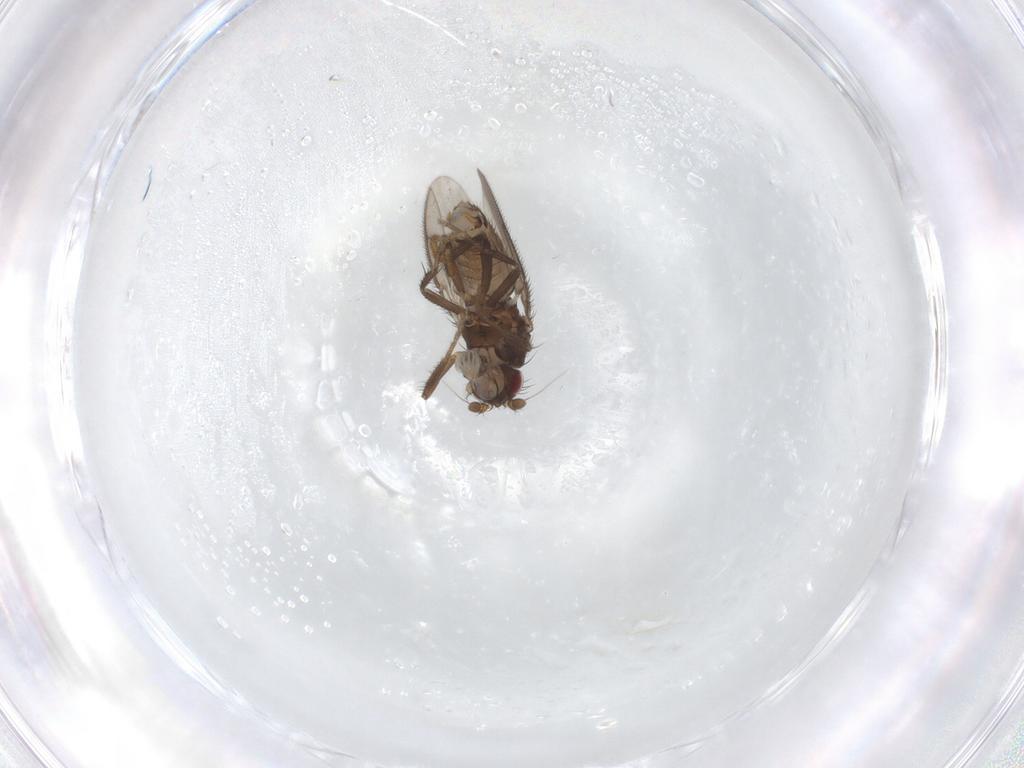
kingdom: Animalia
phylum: Arthropoda
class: Insecta
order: Diptera
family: Sphaeroceridae
